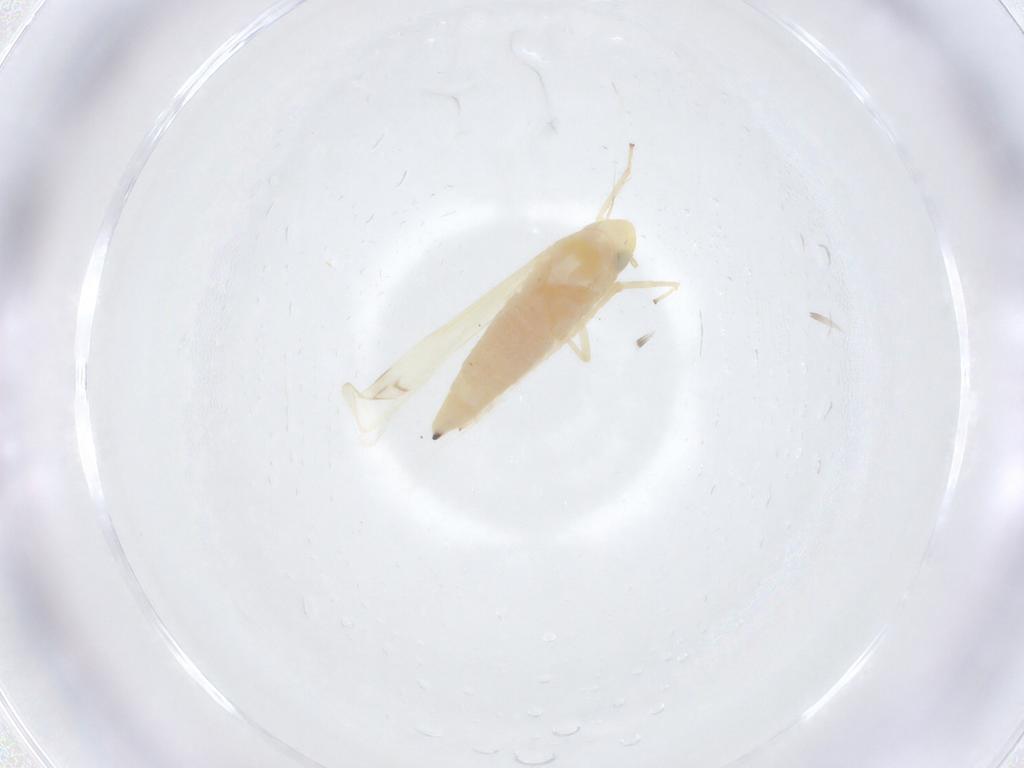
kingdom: Animalia
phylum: Arthropoda
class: Insecta
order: Hemiptera
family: Cicadellidae
